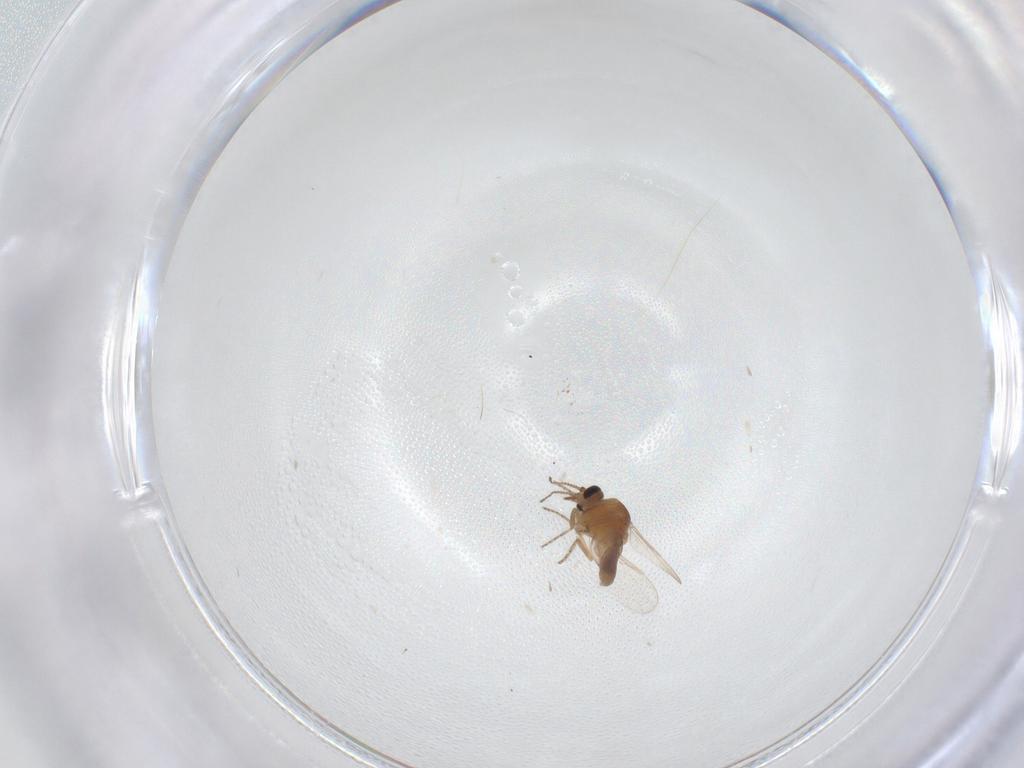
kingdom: Animalia
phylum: Arthropoda
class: Insecta
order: Diptera
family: Ceratopogonidae
